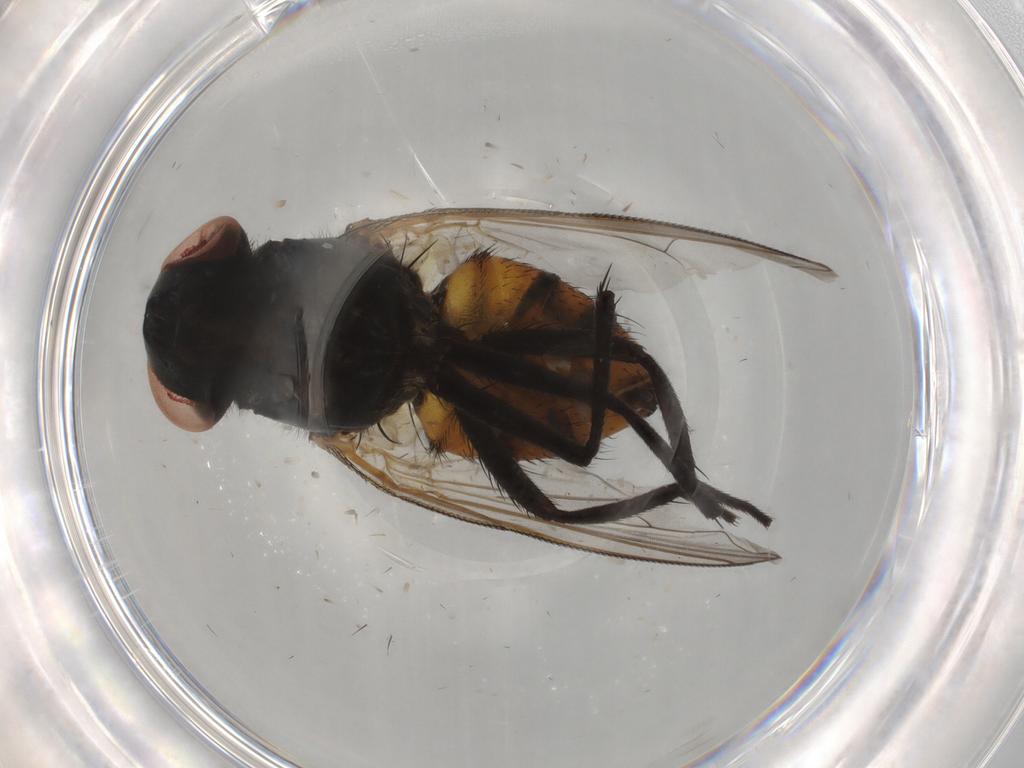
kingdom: Animalia
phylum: Arthropoda
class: Insecta
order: Diptera
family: Muscidae
